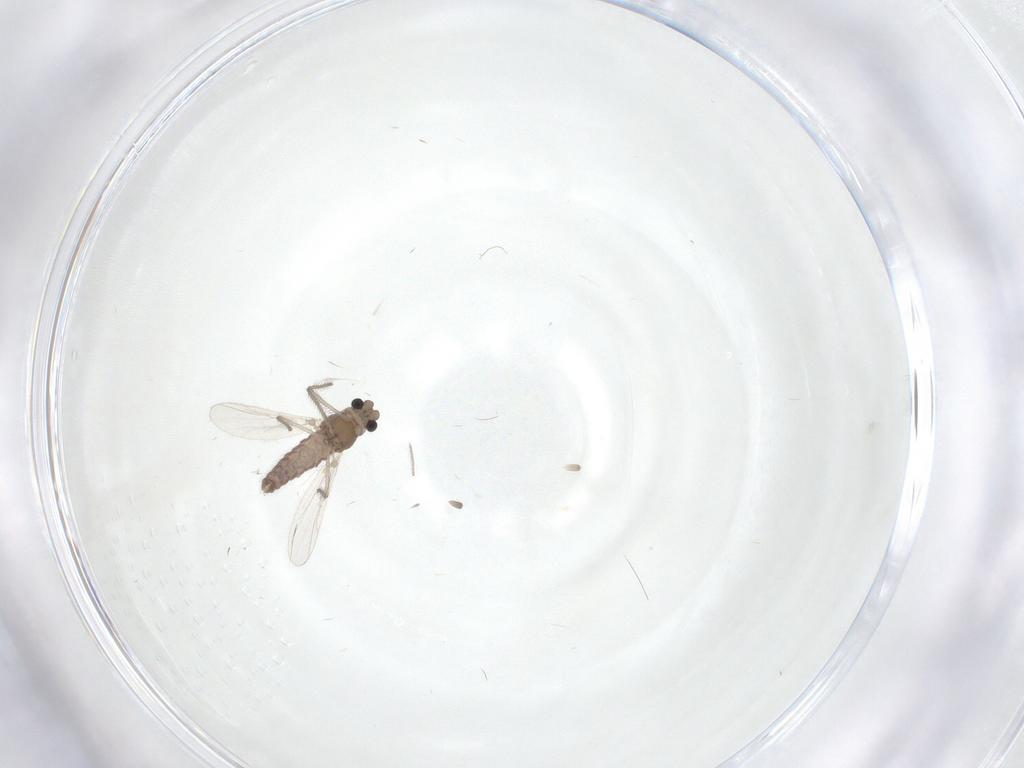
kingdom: Animalia
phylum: Arthropoda
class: Insecta
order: Diptera
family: Chironomidae
